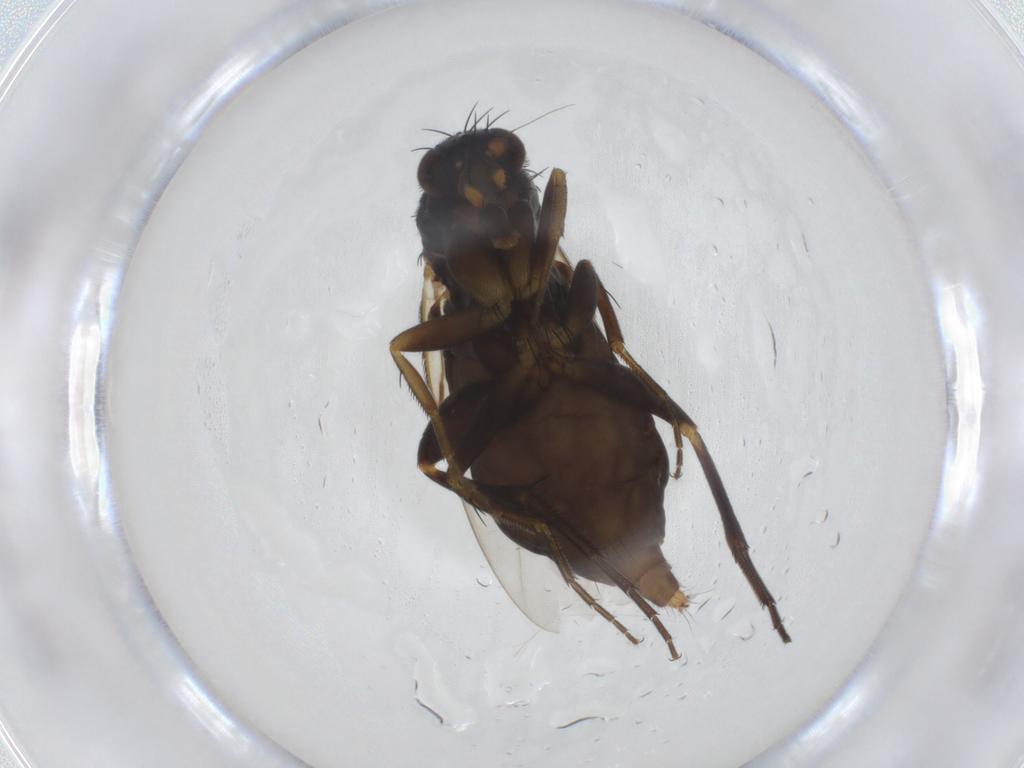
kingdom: Animalia
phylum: Arthropoda
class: Insecta
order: Diptera
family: Phoridae
